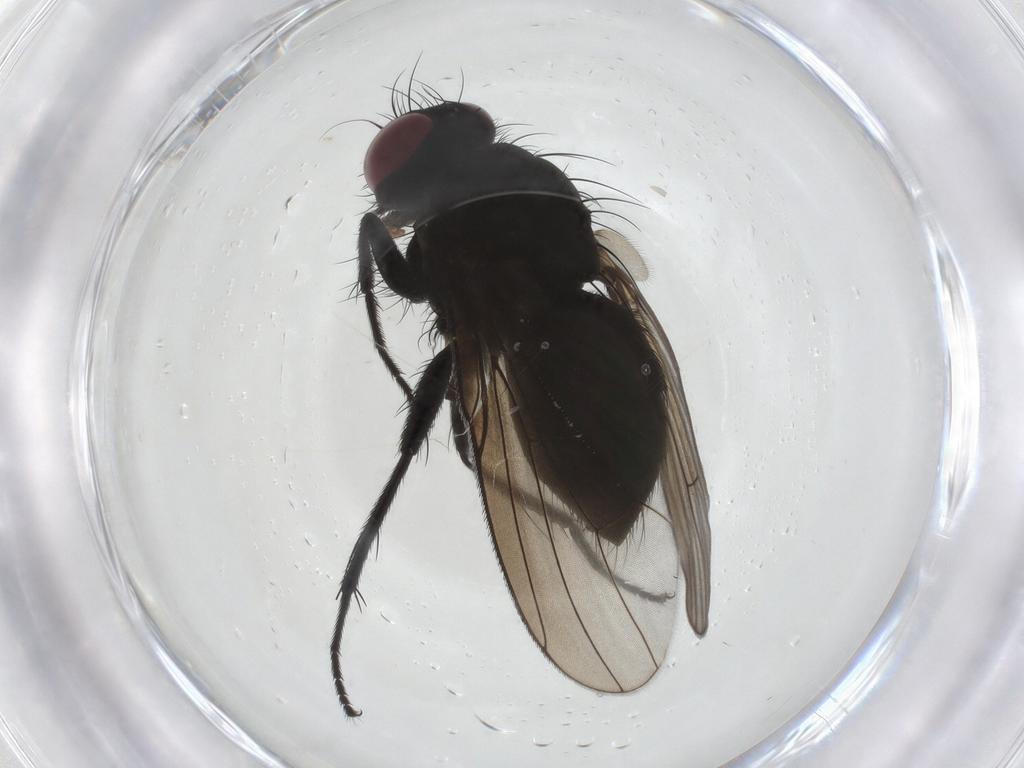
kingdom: Animalia
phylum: Arthropoda
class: Insecta
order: Diptera
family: Muscidae
